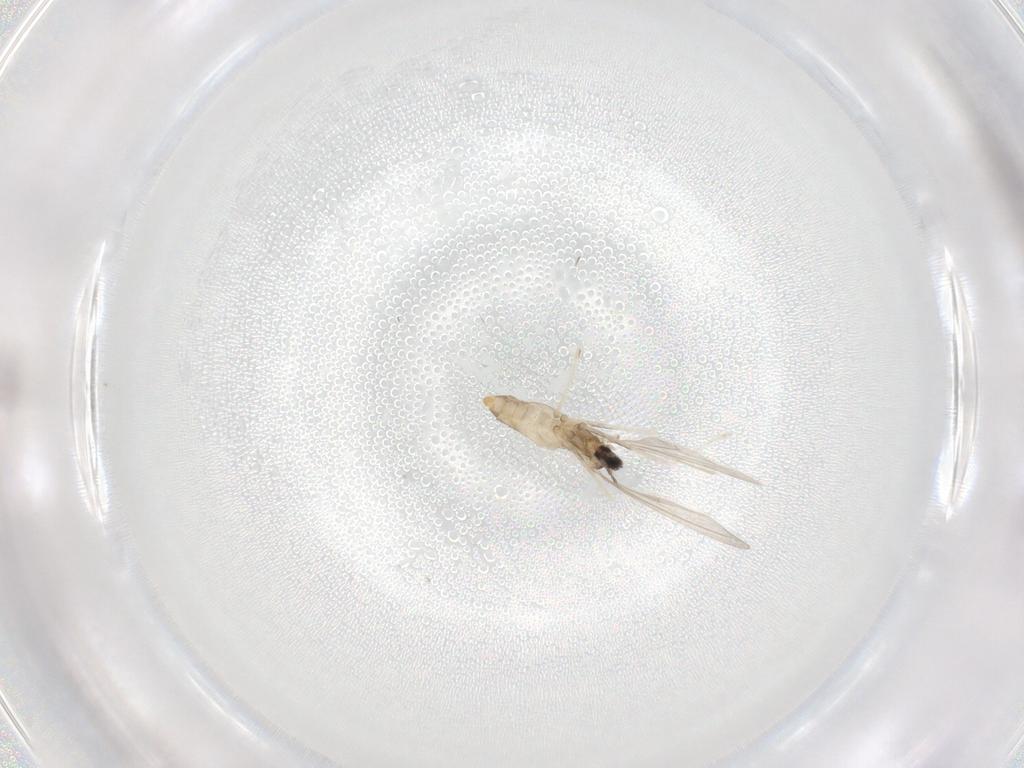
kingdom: Animalia
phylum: Arthropoda
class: Insecta
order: Diptera
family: Cecidomyiidae
